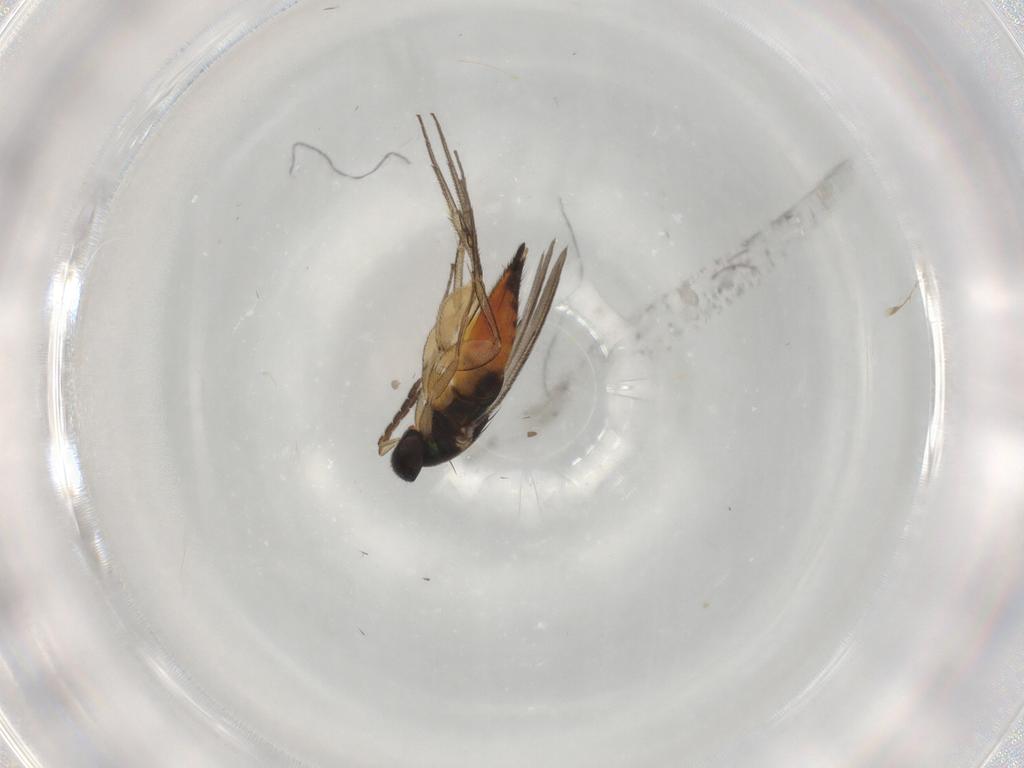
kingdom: Animalia
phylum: Arthropoda
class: Insecta
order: Hymenoptera
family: Eulophidae
